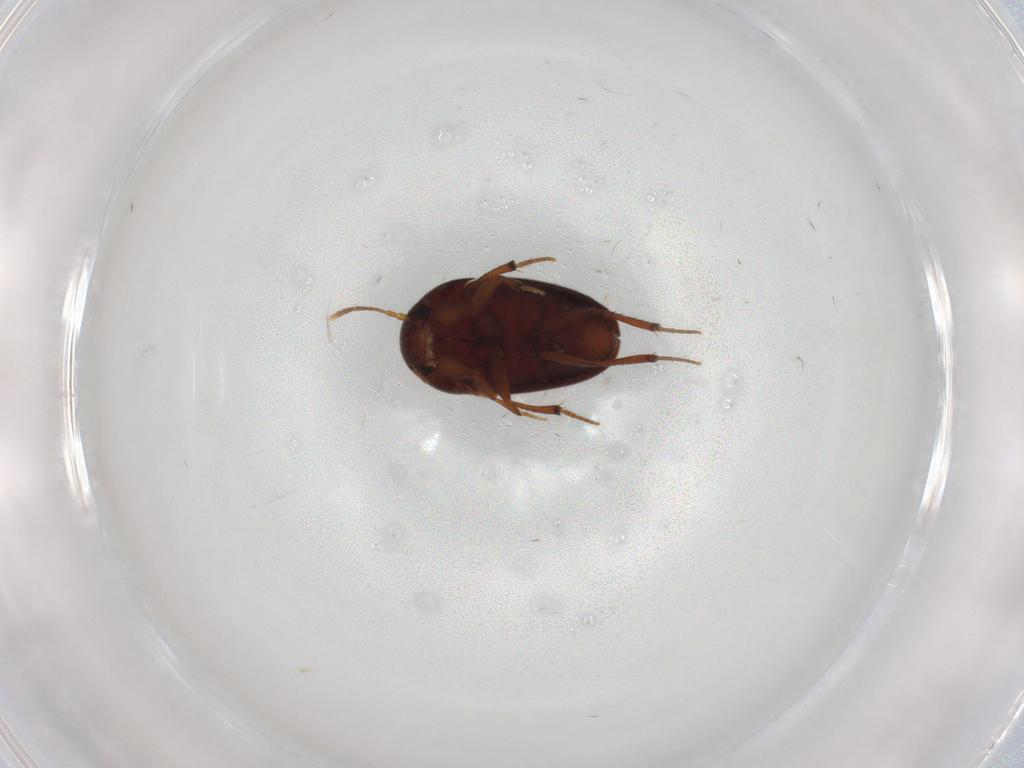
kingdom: Animalia
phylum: Arthropoda
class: Insecta
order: Coleoptera
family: Leiodidae
